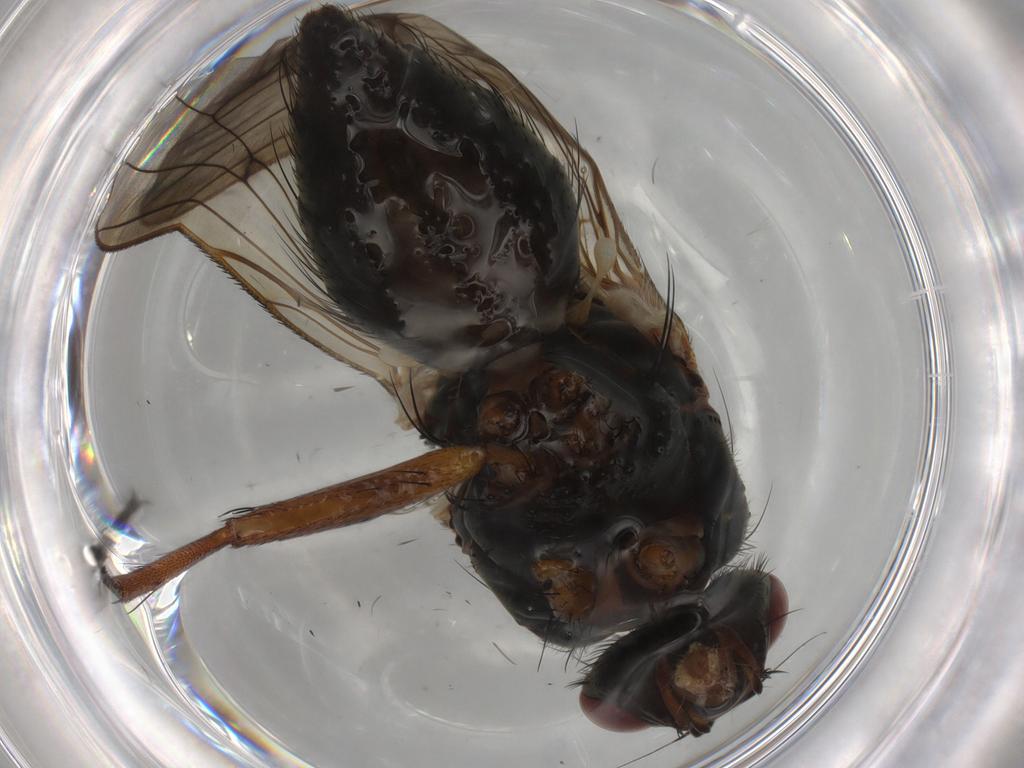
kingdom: Animalia
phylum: Arthropoda
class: Insecta
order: Diptera
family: Anthomyiidae
